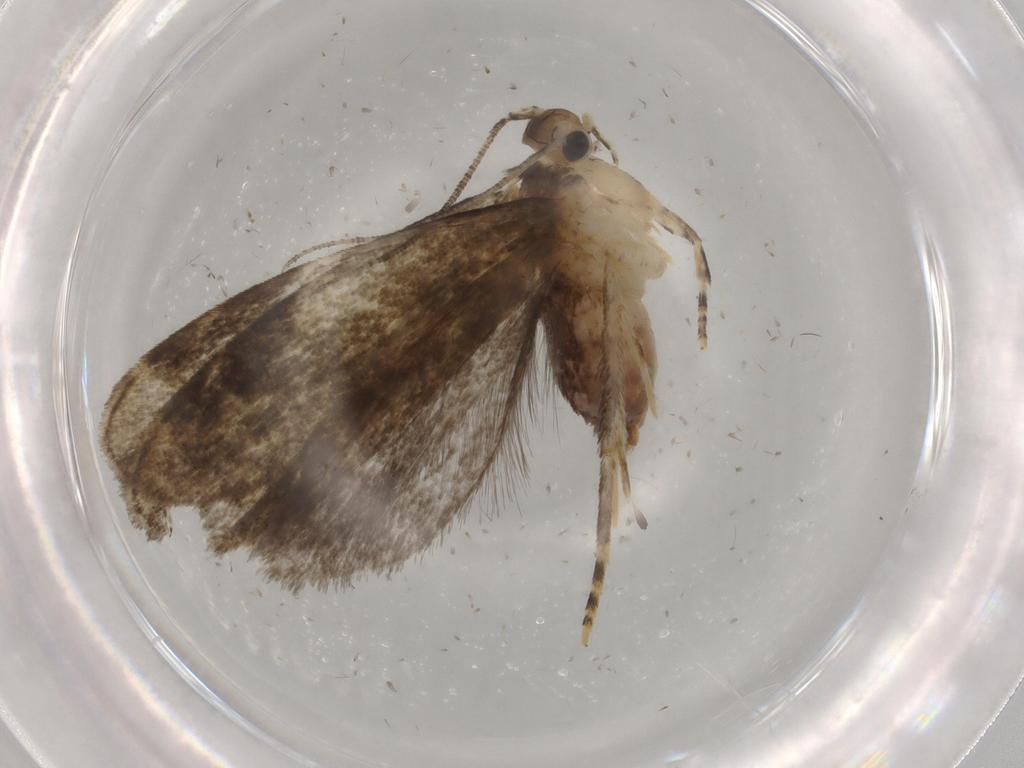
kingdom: Animalia
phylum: Arthropoda
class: Insecta
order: Lepidoptera
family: Tineidae
